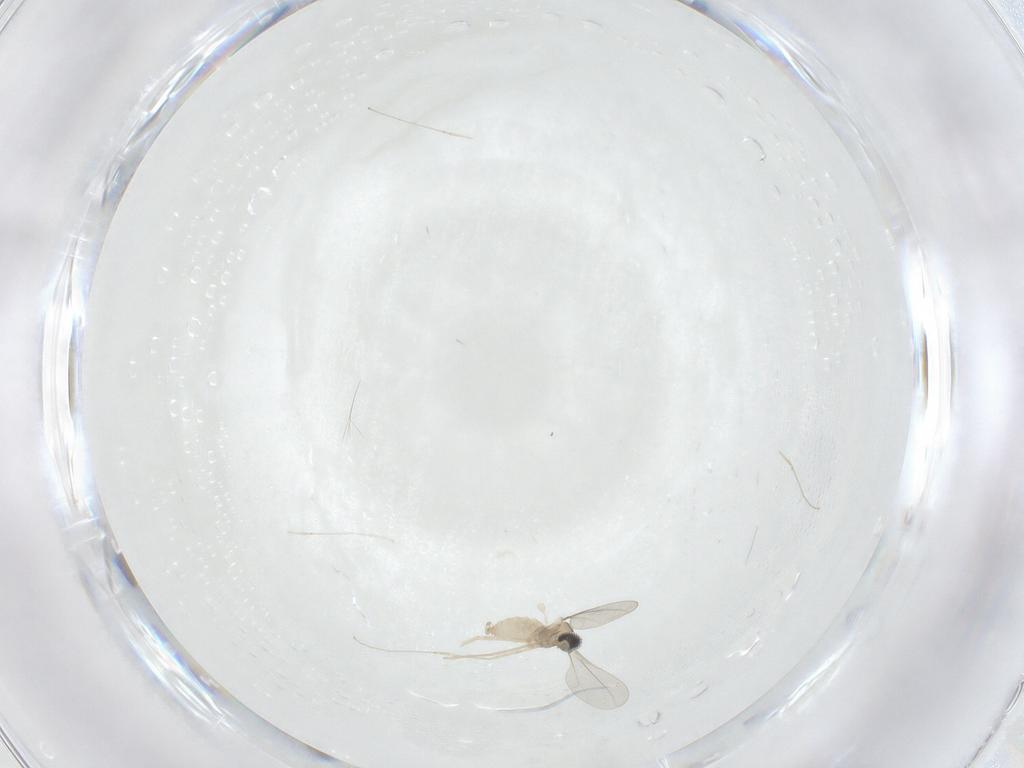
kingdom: Animalia
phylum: Arthropoda
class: Insecta
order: Diptera
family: Cecidomyiidae
